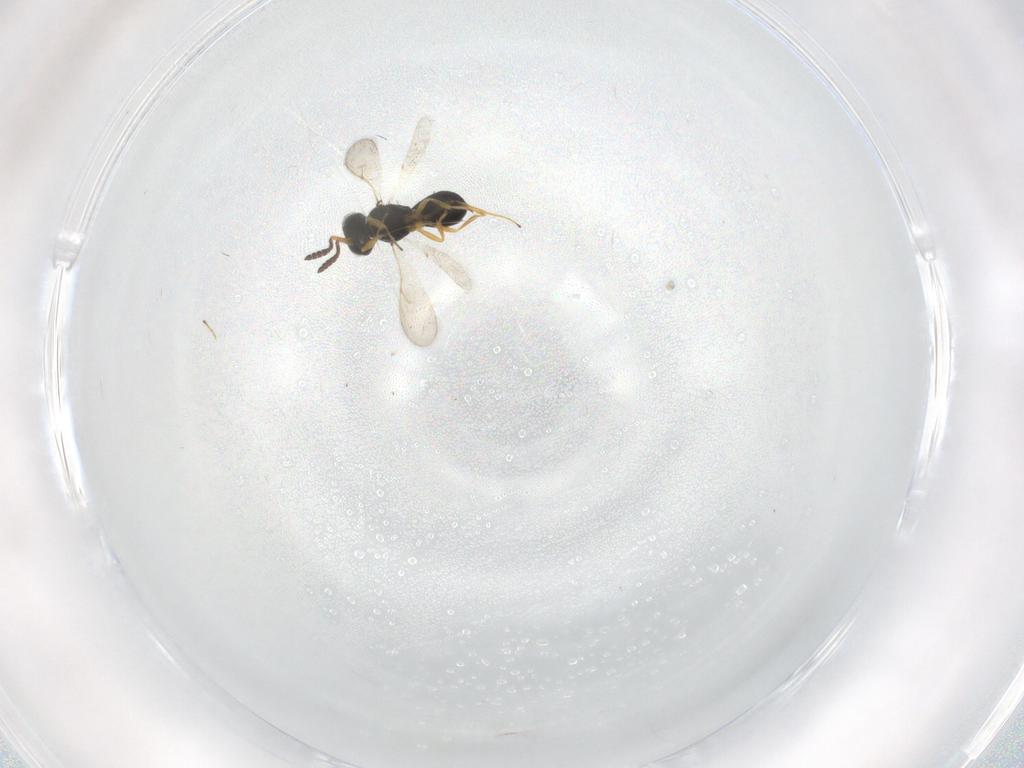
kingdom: Animalia
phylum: Arthropoda
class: Insecta
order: Hymenoptera
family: Scelionidae
